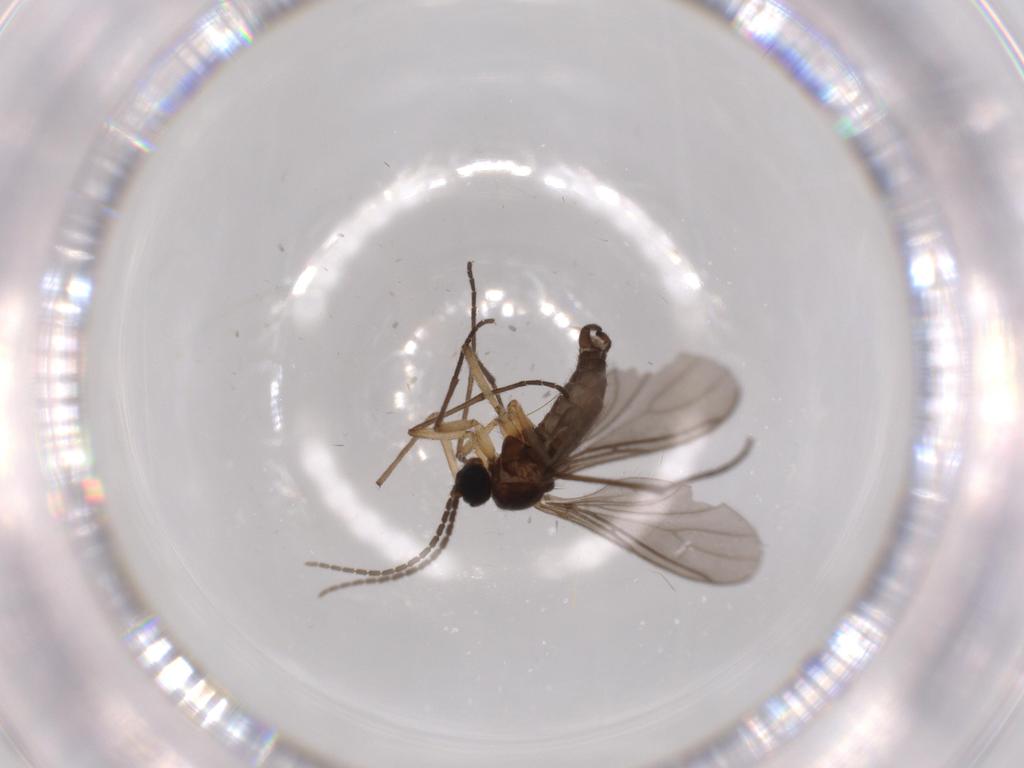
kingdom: Animalia
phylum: Arthropoda
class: Insecta
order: Diptera
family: Chironomidae
